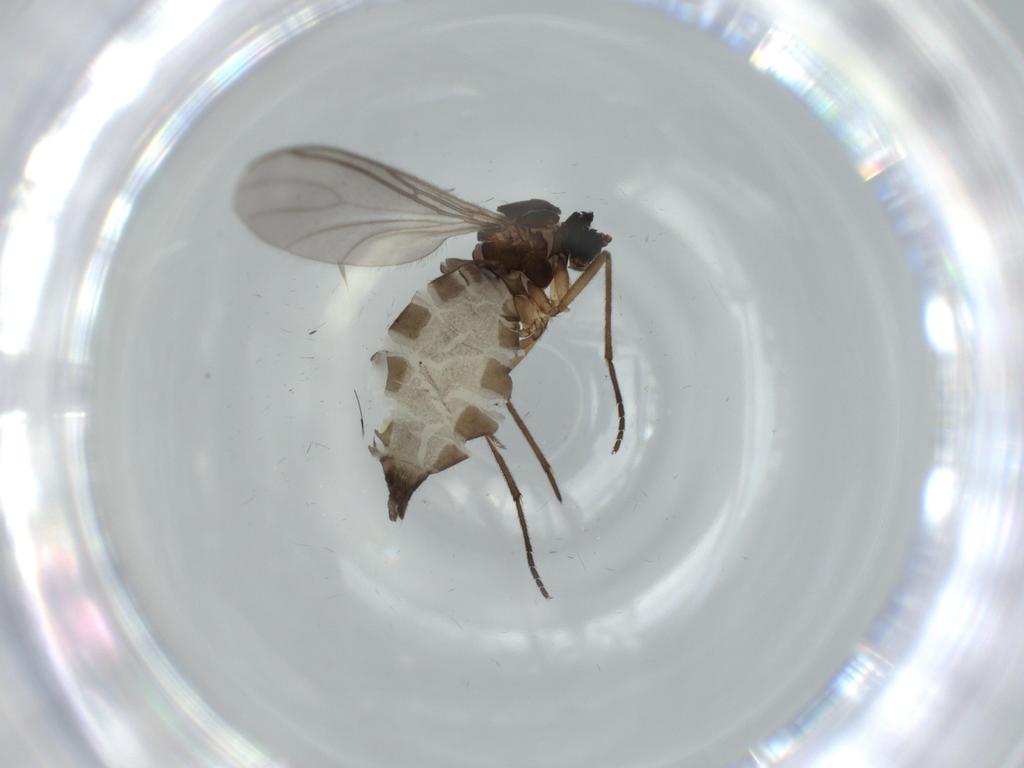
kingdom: Animalia
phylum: Arthropoda
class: Insecta
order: Diptera
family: Sciaridae
